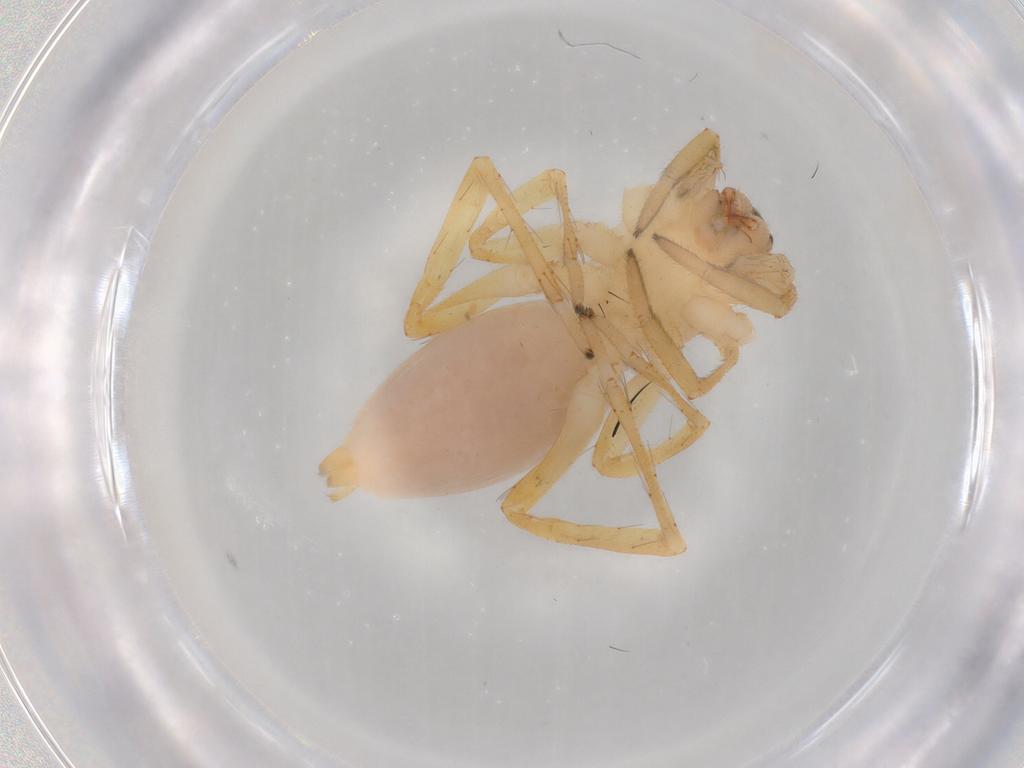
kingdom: Animalia
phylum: Arthropoda
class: Arachnida
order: Araneae
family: Clubionidae
